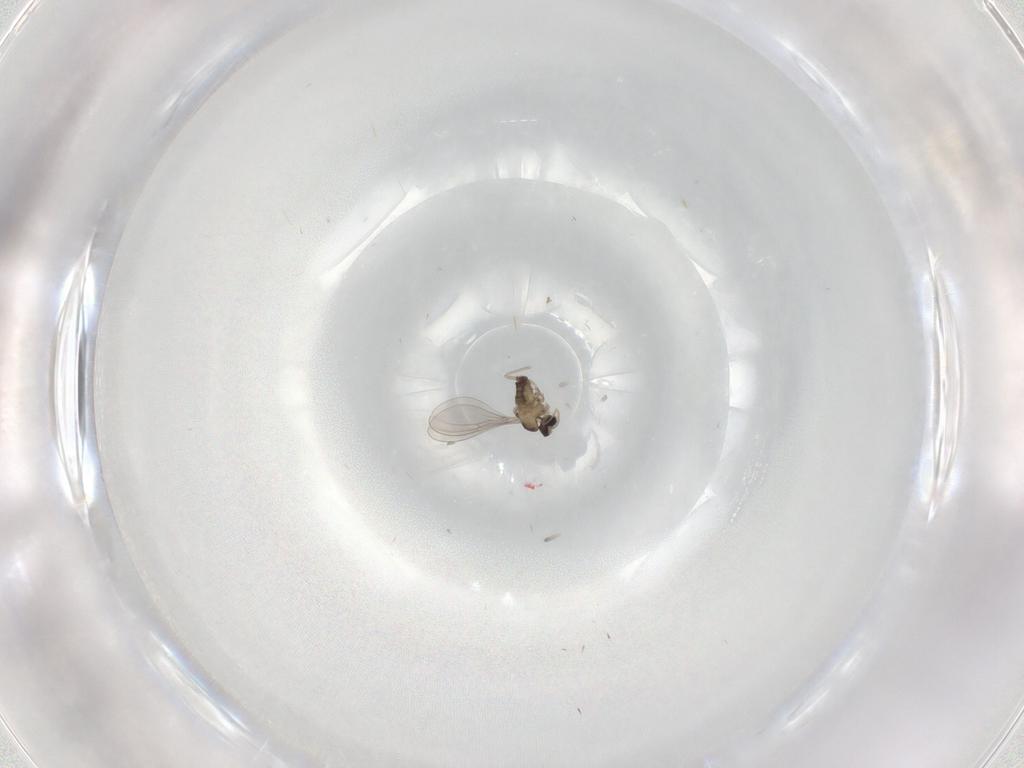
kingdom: Animalia
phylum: Arthropoda
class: Insecta
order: Diptera
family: Cecidomyiidae
